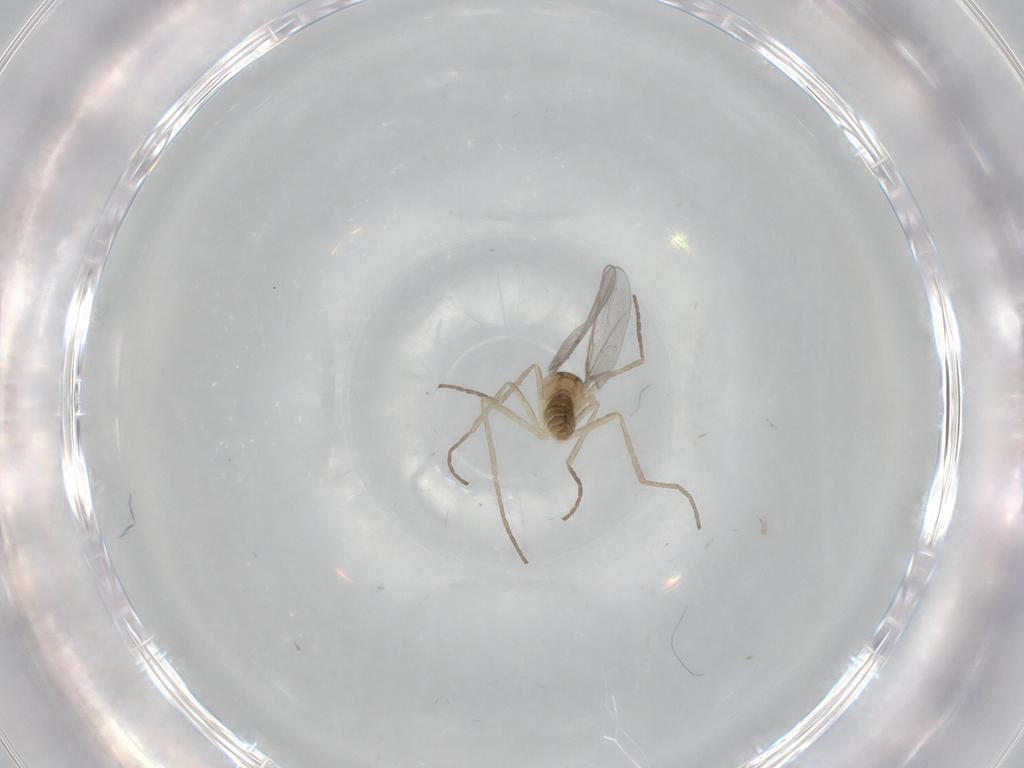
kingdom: Animalia
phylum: Arthropoda
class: Insecta
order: Diptera
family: Cecidomyiidae
